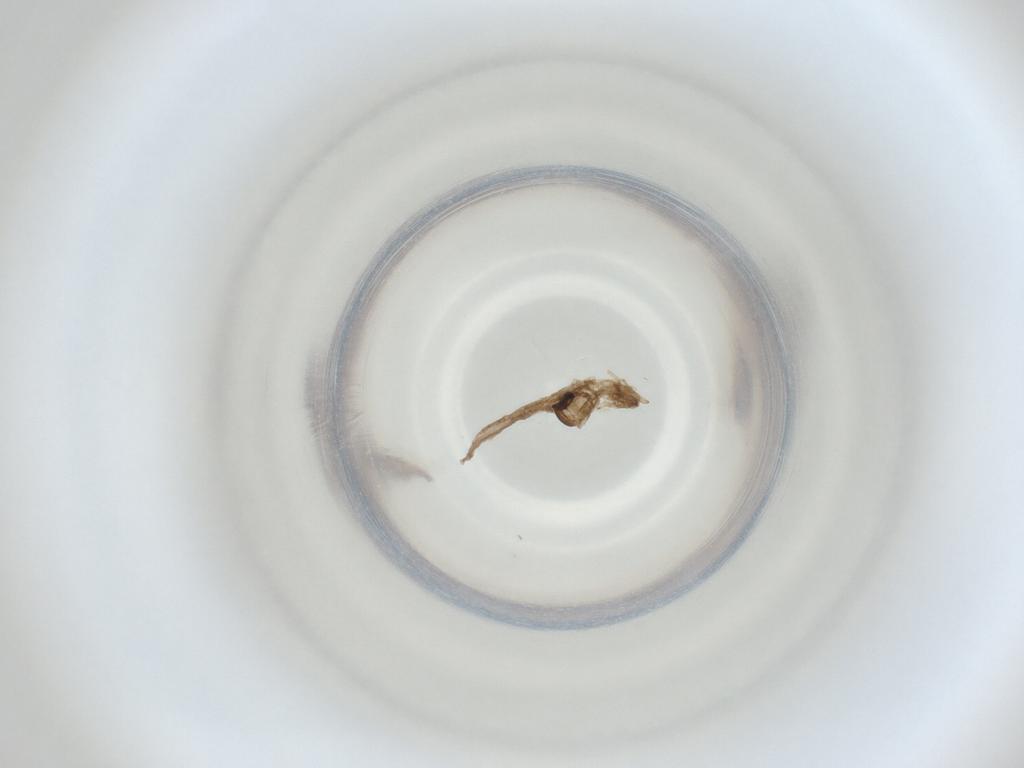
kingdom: Animalia
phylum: Arthropoda
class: Insecta
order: Diptera
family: Cecidomyiidae
